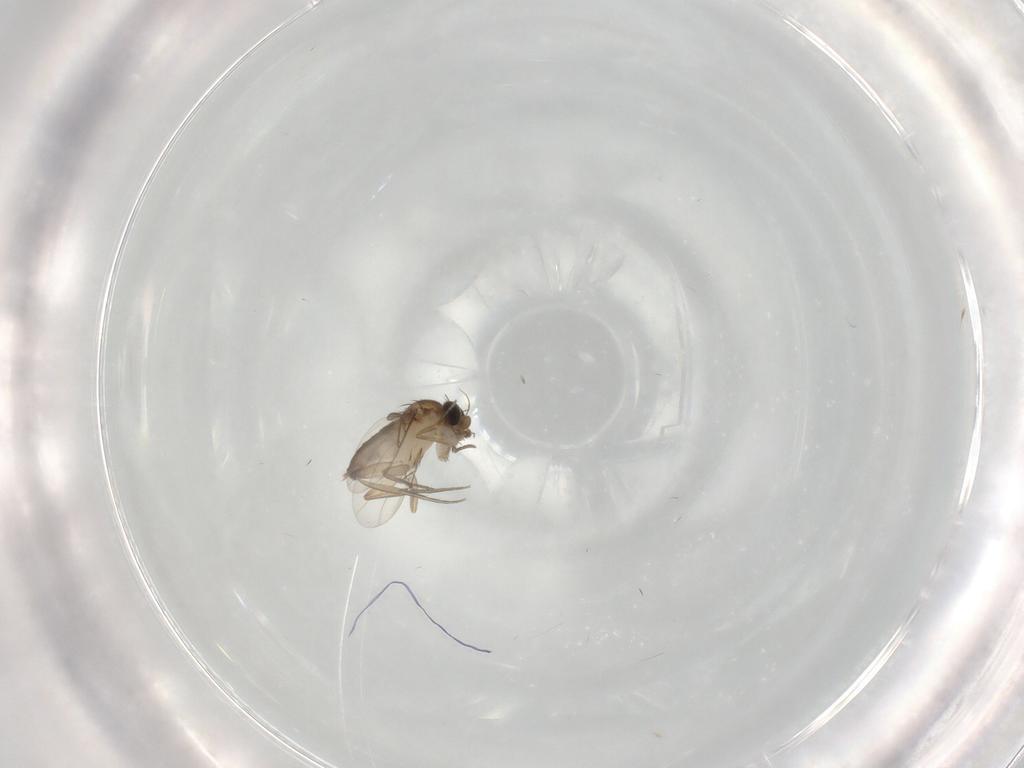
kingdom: Animalia
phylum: Arthropoda
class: Insecta
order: Diptera
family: Phoridae
